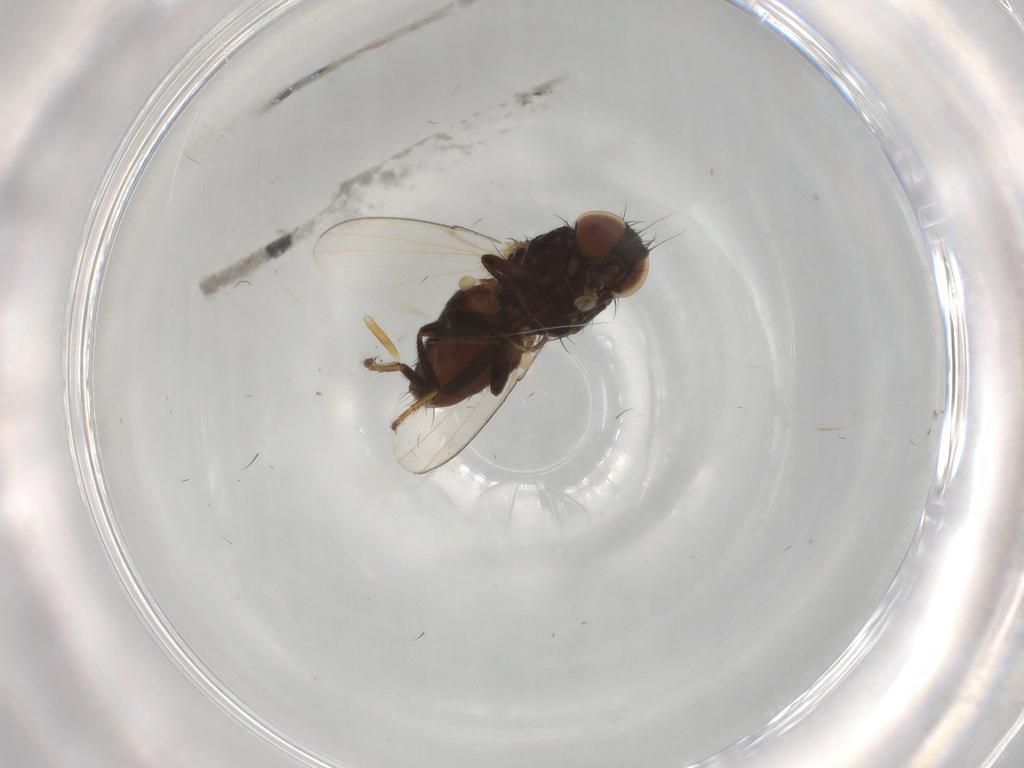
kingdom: Animalia
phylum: Arthropoda
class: Insecta
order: Diptera
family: Milichiidae
